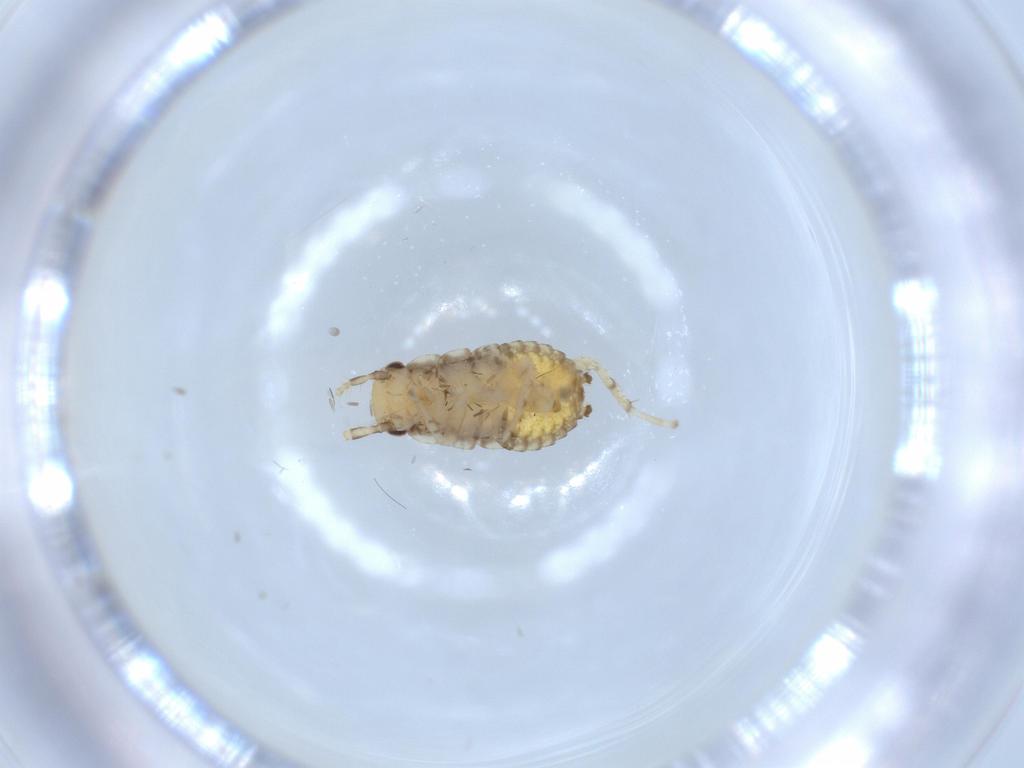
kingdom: Animalia
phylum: Arthropoda
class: Insecta
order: Blattodea
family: Ectobiidae
